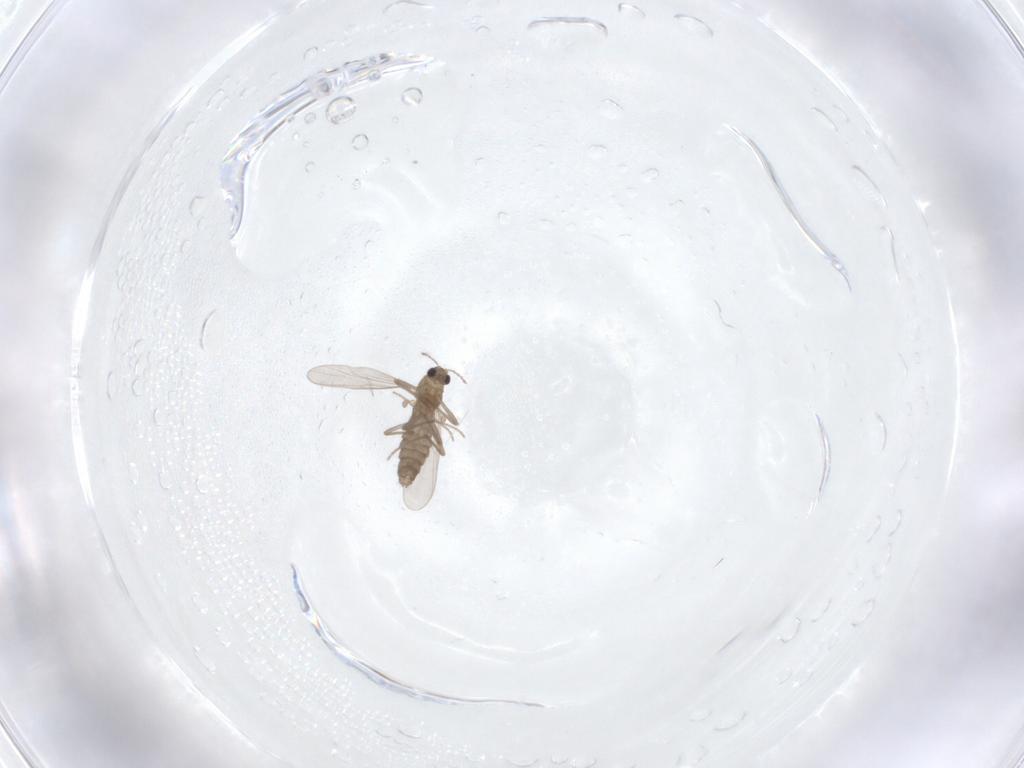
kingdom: Animalia
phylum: Arthropoda
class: Insecta
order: Diptera
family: Chironomidae
